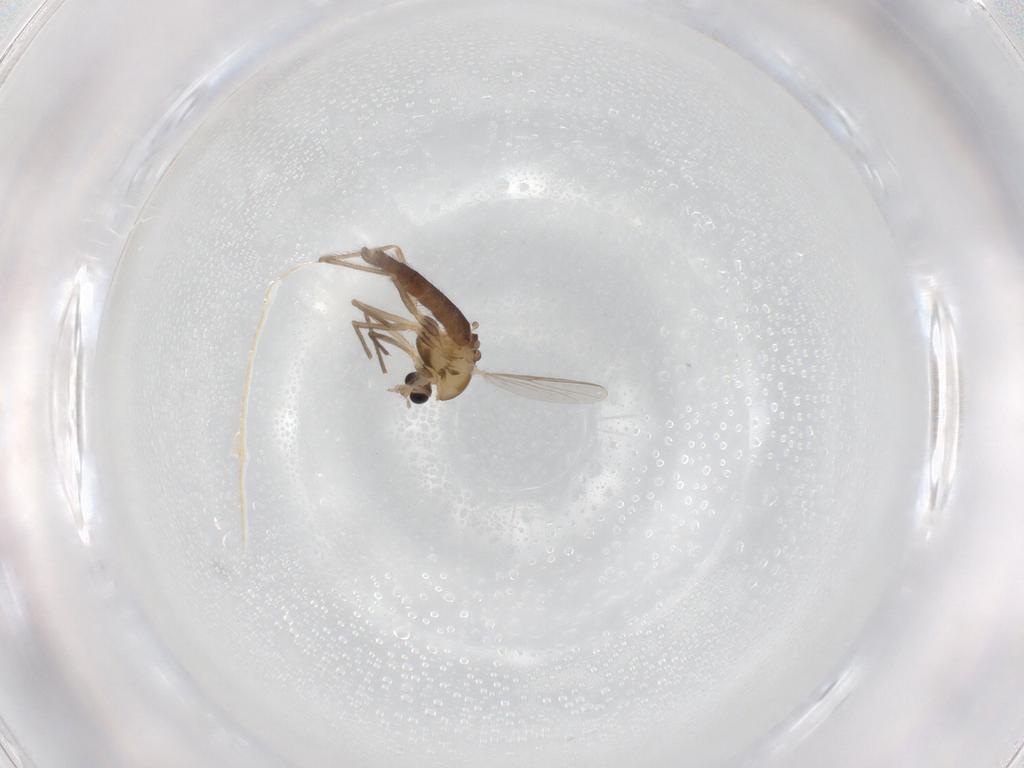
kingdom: Animalia
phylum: Arthropoda
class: Insecta
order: Diptera
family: Chironomidae
